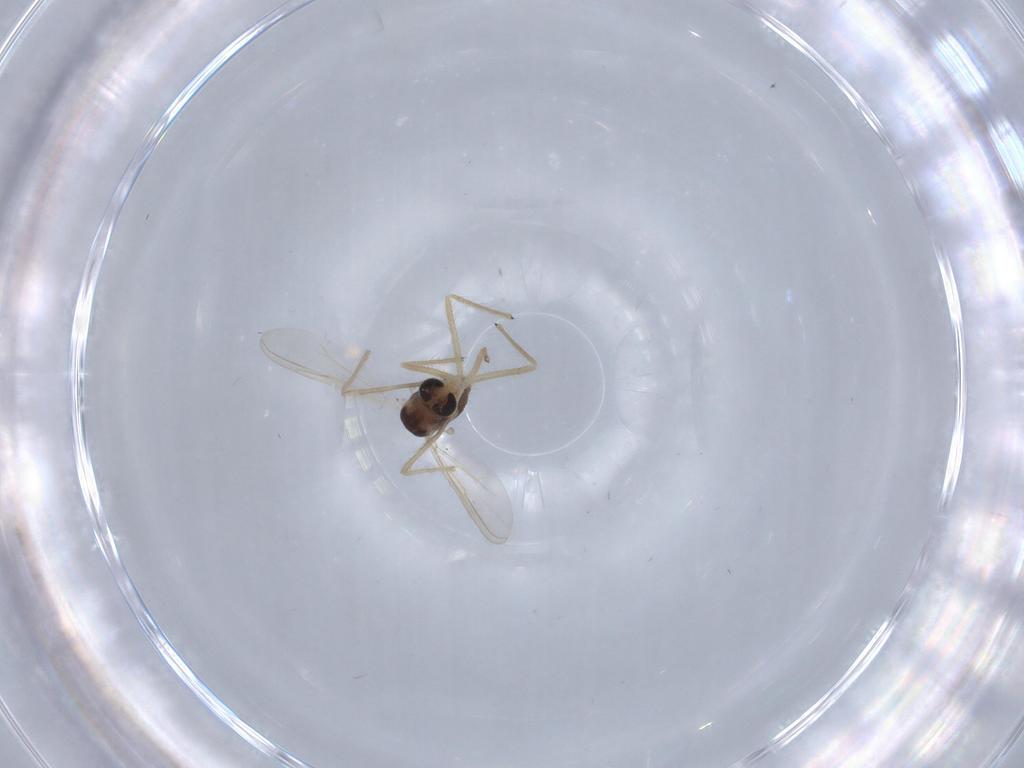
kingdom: Animalia
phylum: Arthropoda
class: Insecta
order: Diptera
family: Chironomidae
